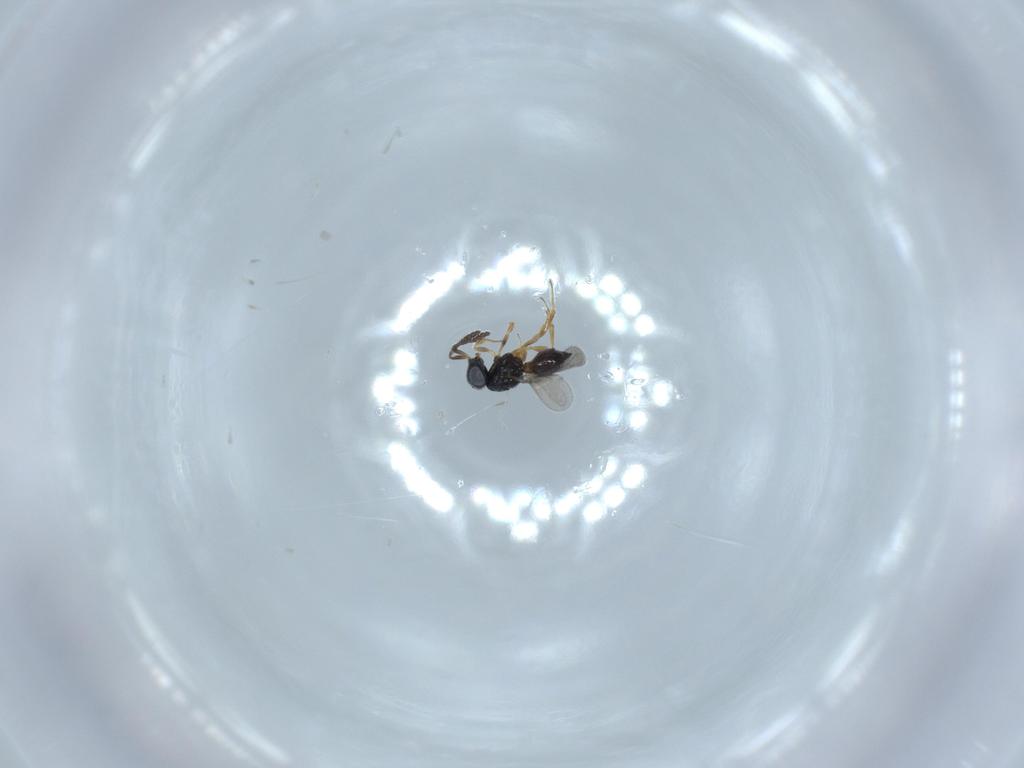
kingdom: Animalia
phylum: Arthropoda
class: Insecta
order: Hymenoptera
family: Scelionidae
